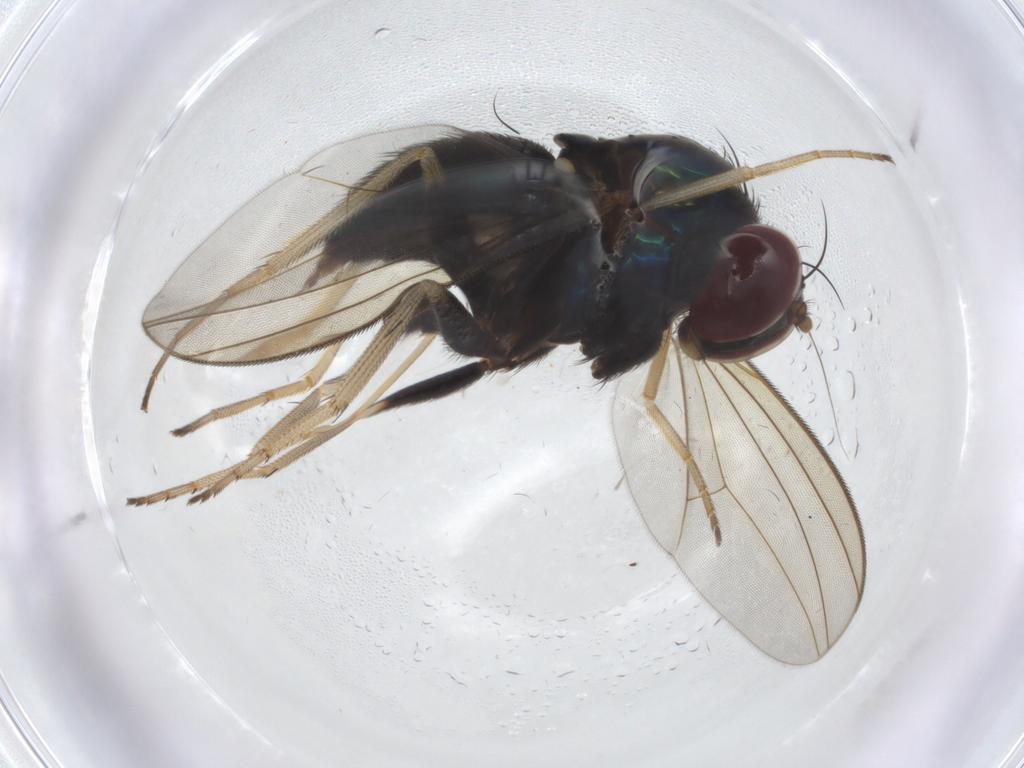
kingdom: Animalia
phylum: Arthropoda
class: Insecta
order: Diptera
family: Dolichopodidae
